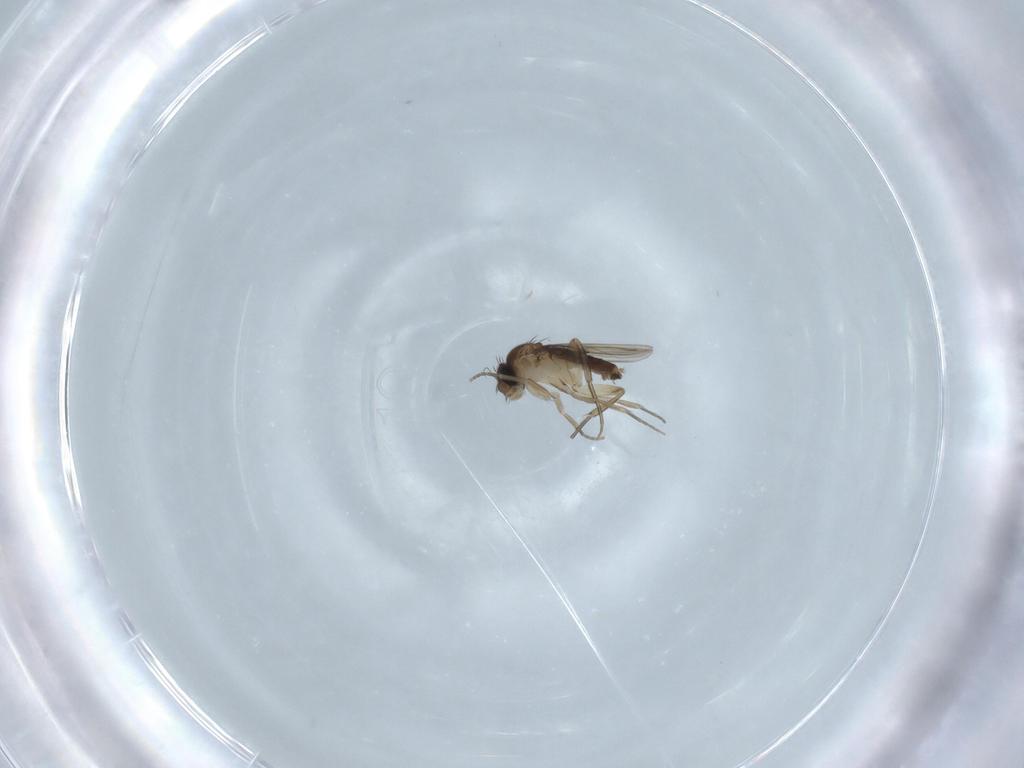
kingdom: Animalia
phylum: Arthropoda
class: Insecta
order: Diptera
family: Phoridae
